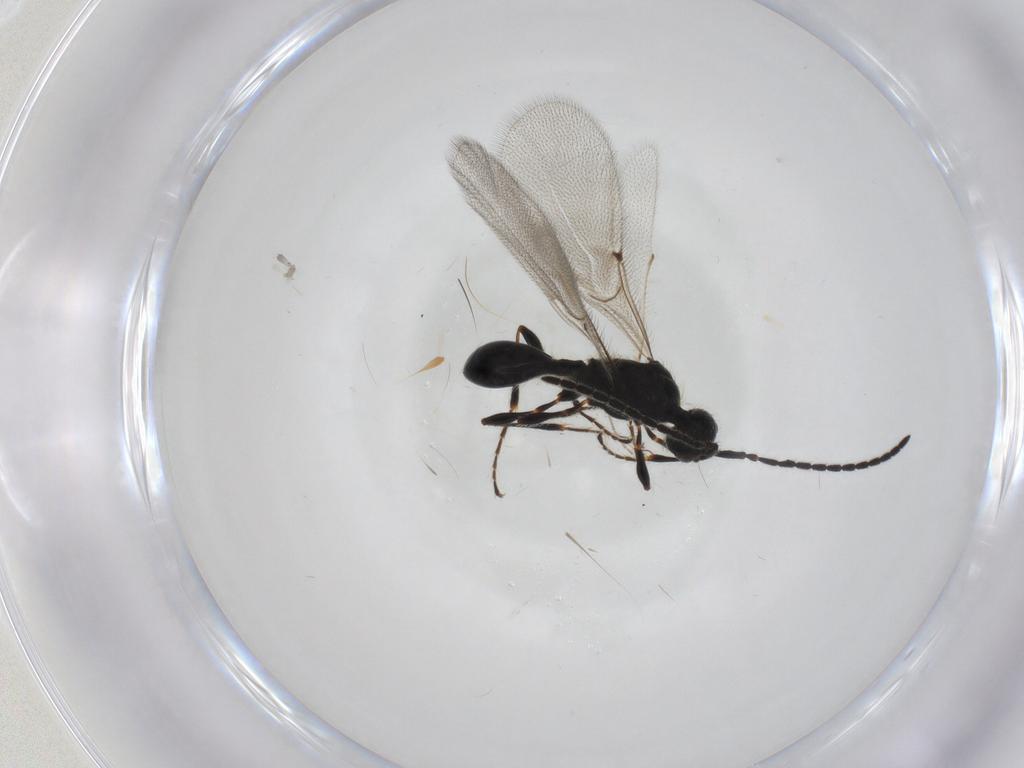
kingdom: Animalia
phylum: Arthropoda
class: Insecta
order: Hymenoptera
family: Diapriidae
